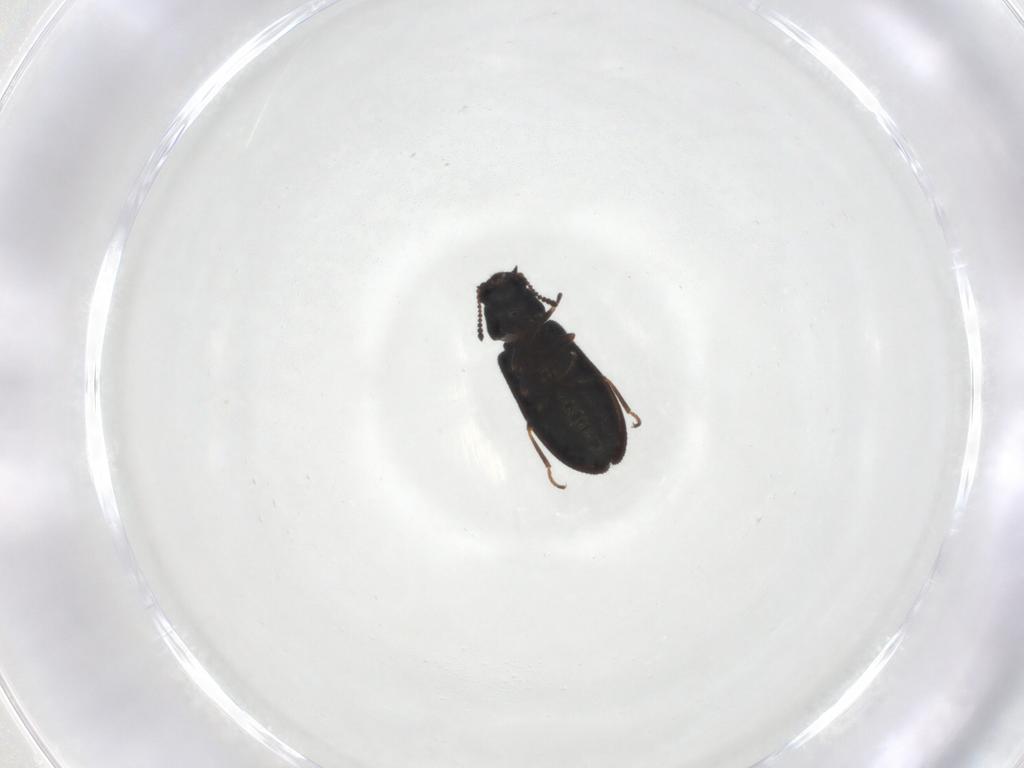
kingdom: Animalia
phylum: Arthropoda
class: Insecta
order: Coleoptera
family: Melyridae
